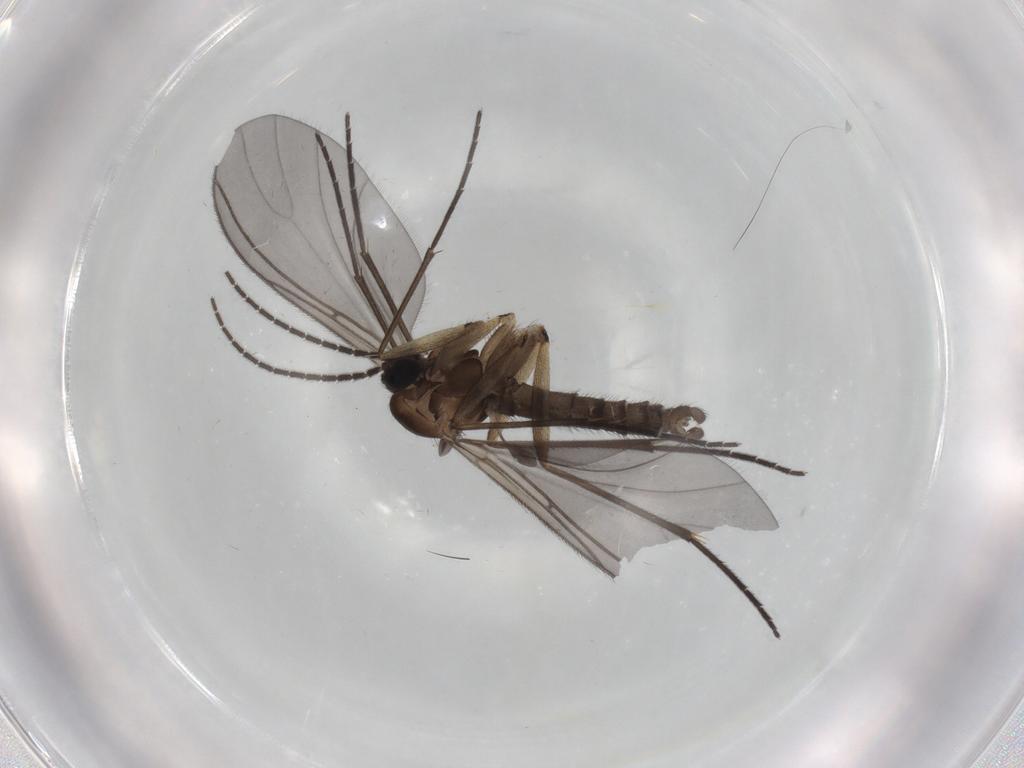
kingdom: Animalia
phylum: Arthropoda
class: Insecta
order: Diptera
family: Sciaridae
